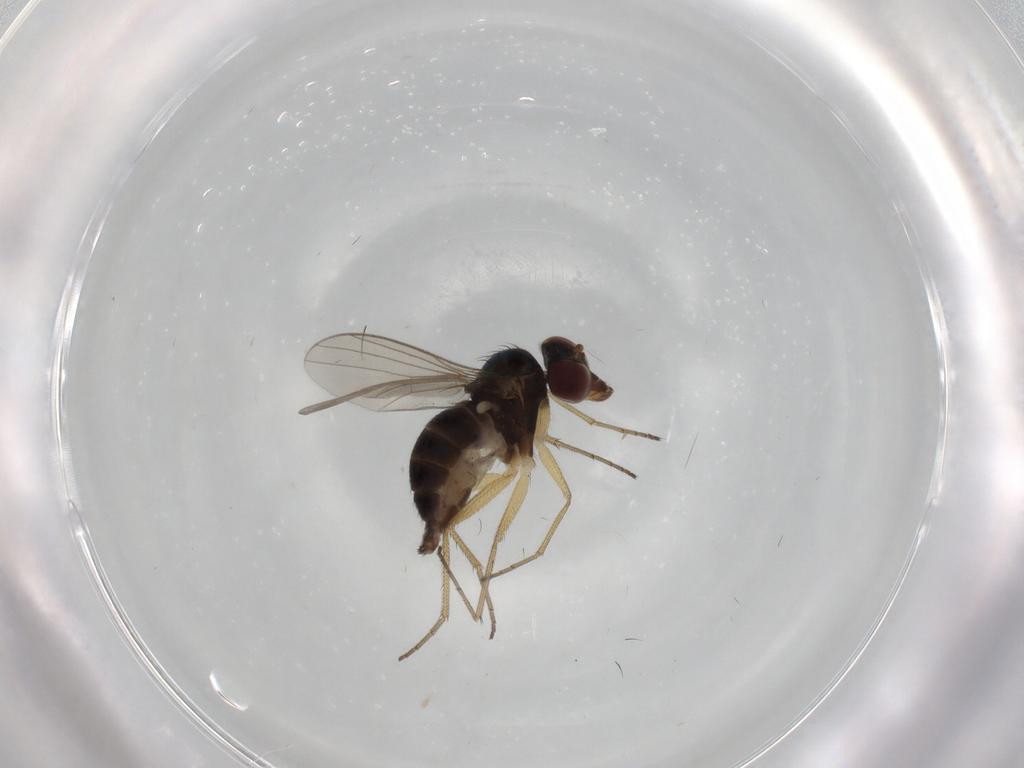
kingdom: Animalia
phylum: Arthropoda
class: Insecta
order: Diptera
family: Dolichopodidae
